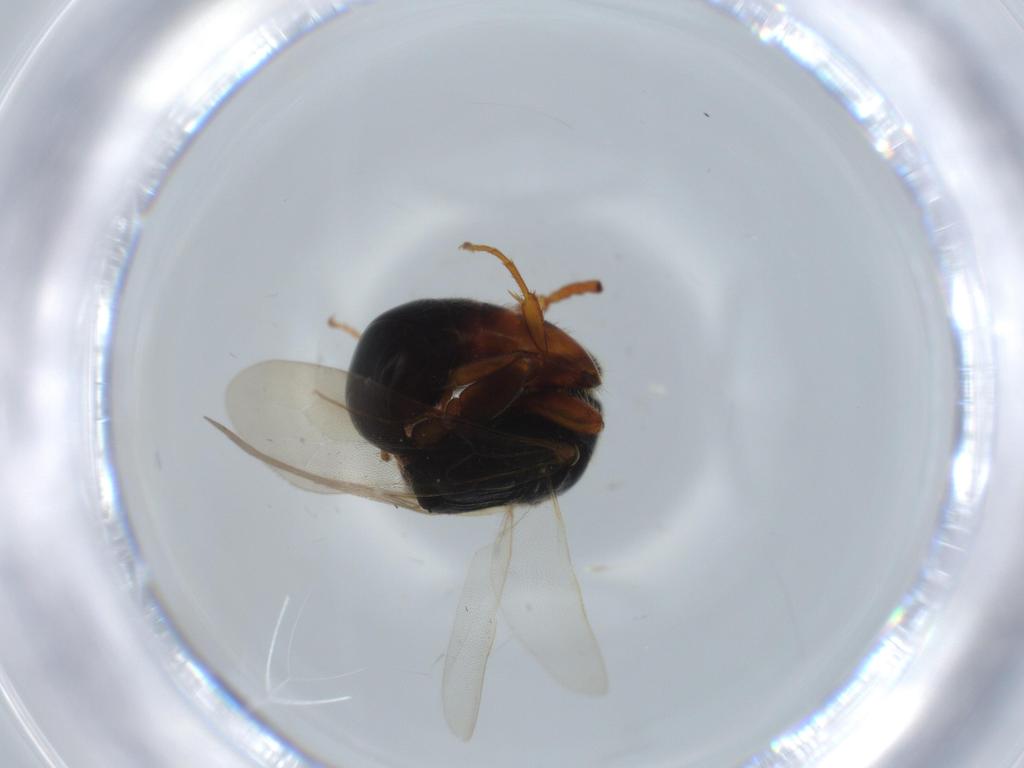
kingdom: Animalia
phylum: Arthropoda
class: Insecta
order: Hymenoptera
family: Bethylidae
